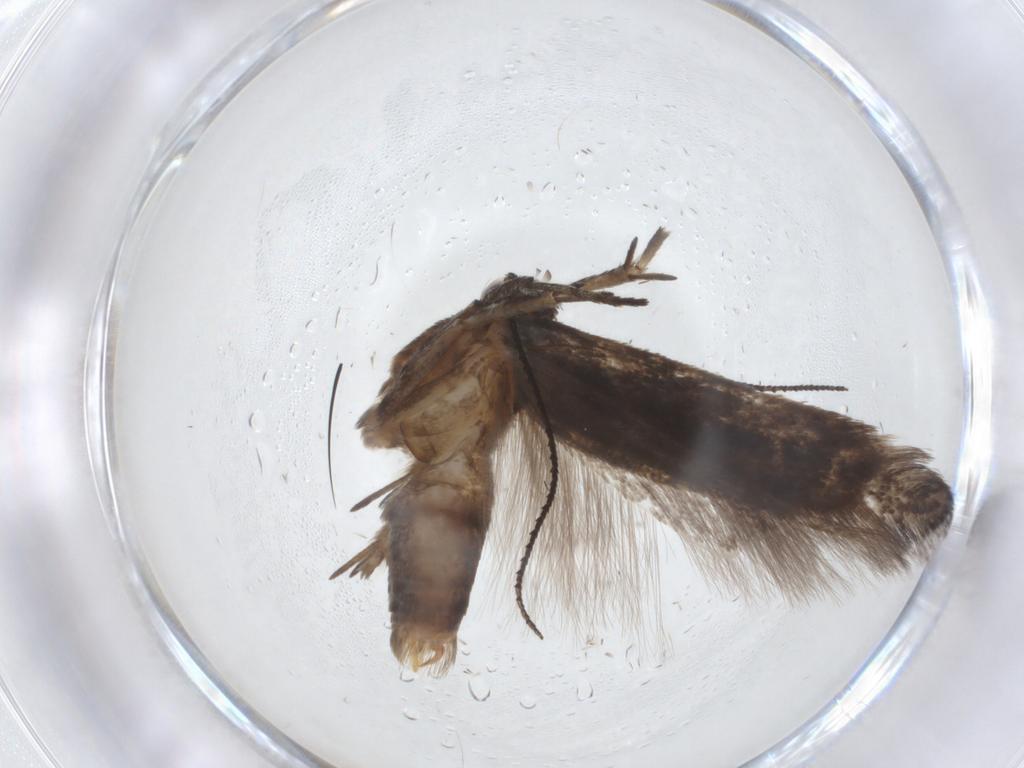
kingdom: Animalia
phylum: Arthropoda
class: Insecta
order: Lepidoptera
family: Gelechiidae
